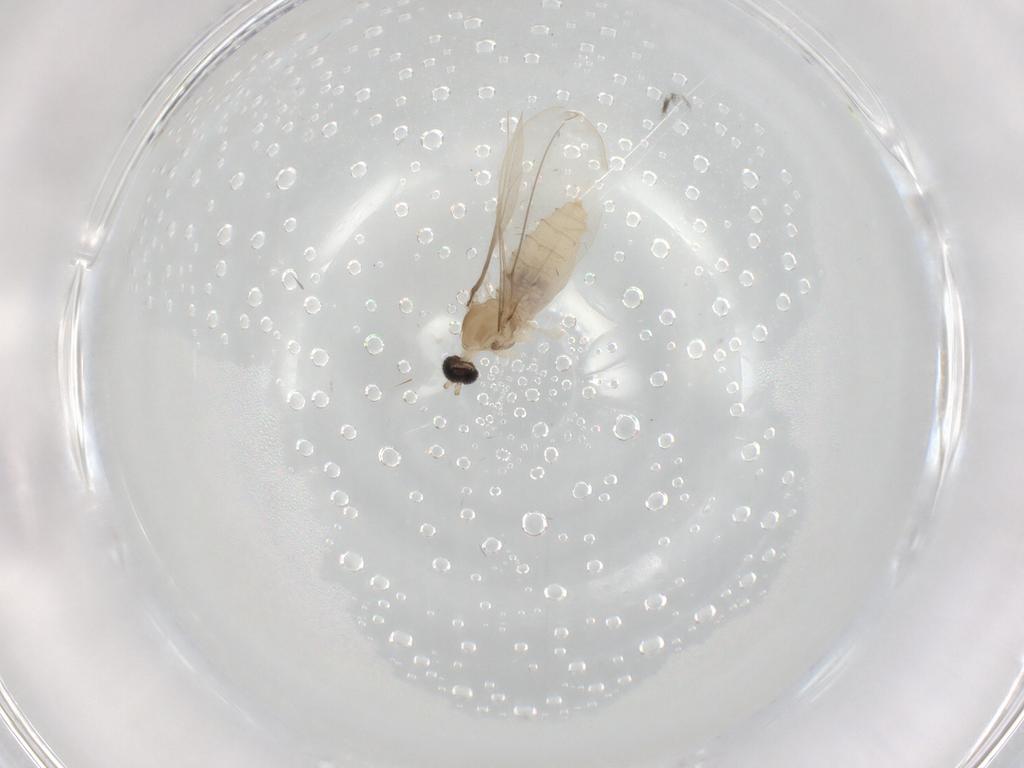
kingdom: Animalia
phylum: Arthropoda
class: Insecta
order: Diptera
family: Cecidomyiidae
